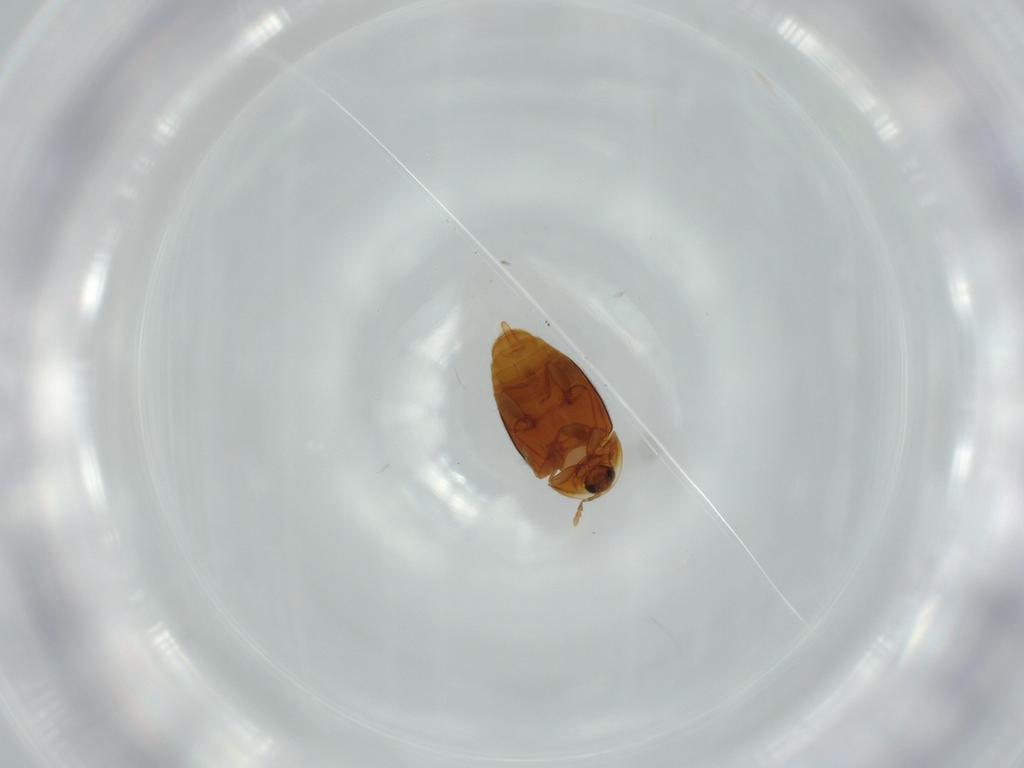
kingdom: Animalia
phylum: Arthropoda
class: Insecta
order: Coleoptera
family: Corylophidae
